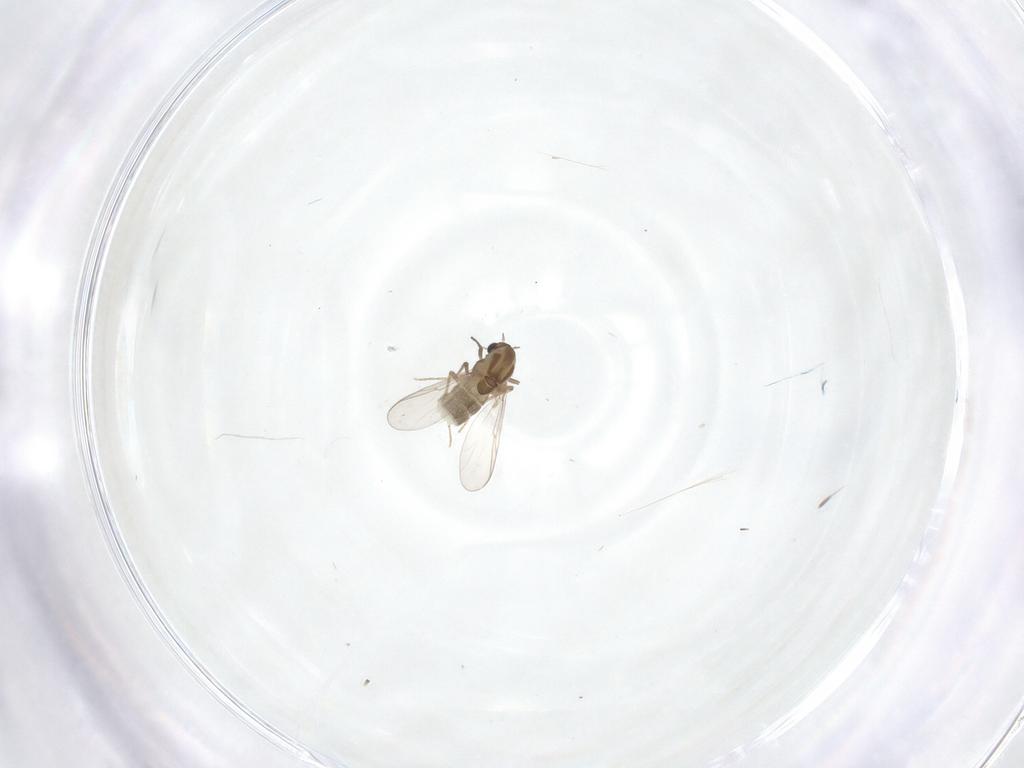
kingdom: Animalia
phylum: Arthropoda
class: Insecta
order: Diptera
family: Chironomidae
